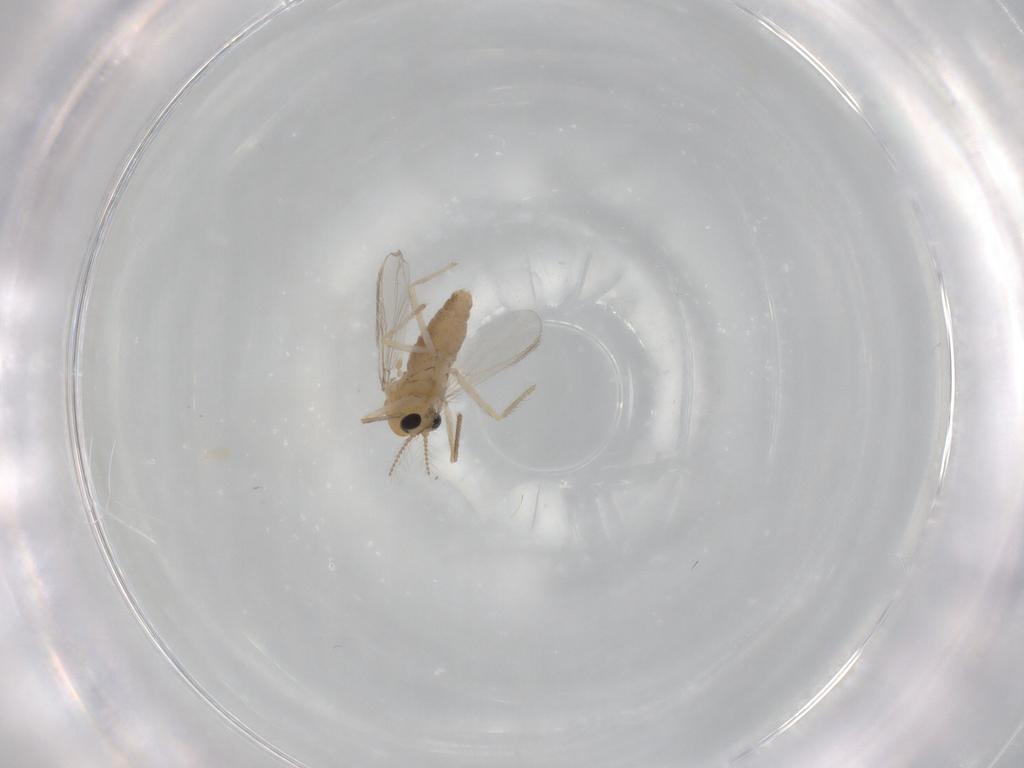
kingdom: Animalia
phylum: Arthropoda
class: Insecta
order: Diptera
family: Chironomidae
